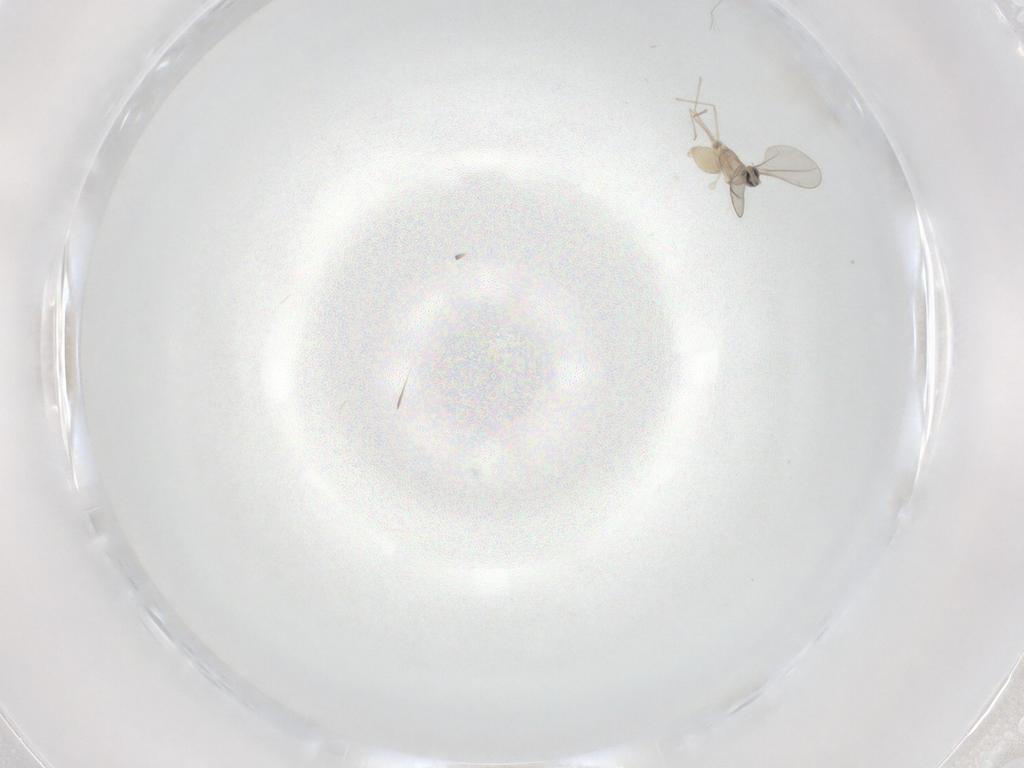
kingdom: Animalia
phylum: Arthropoda
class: Insecta
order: Diptera
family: Cecidomyiidae
